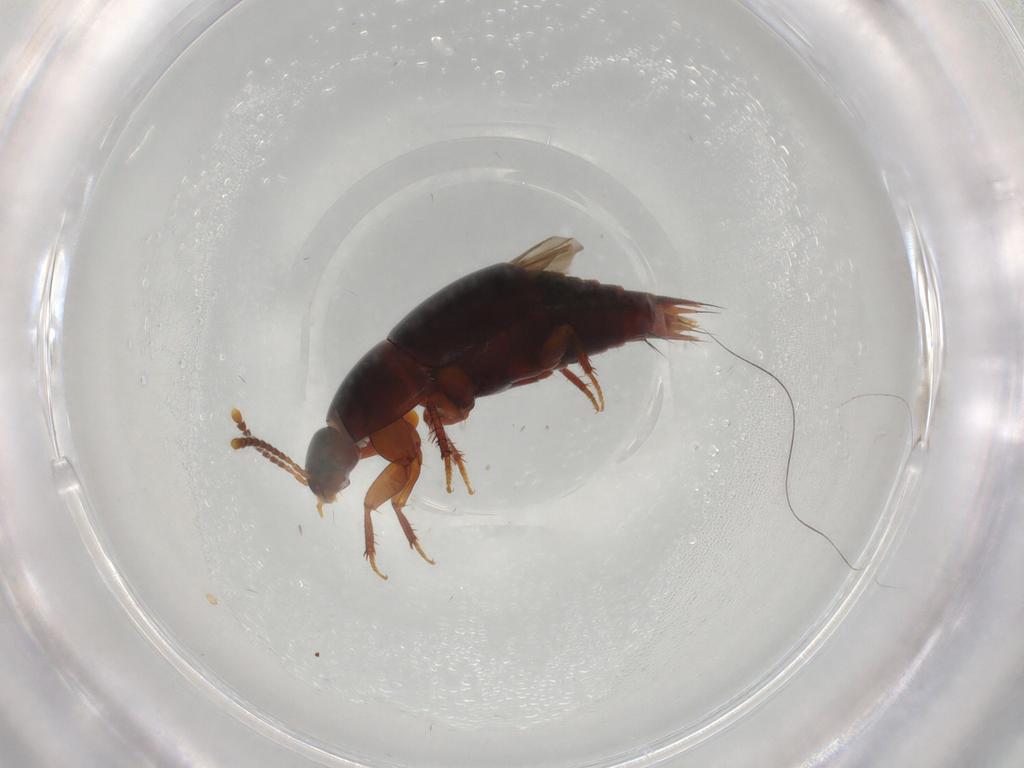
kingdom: Animalia
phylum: Arthropoda
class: Insecta
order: Coleoptera
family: Staphylinidae
